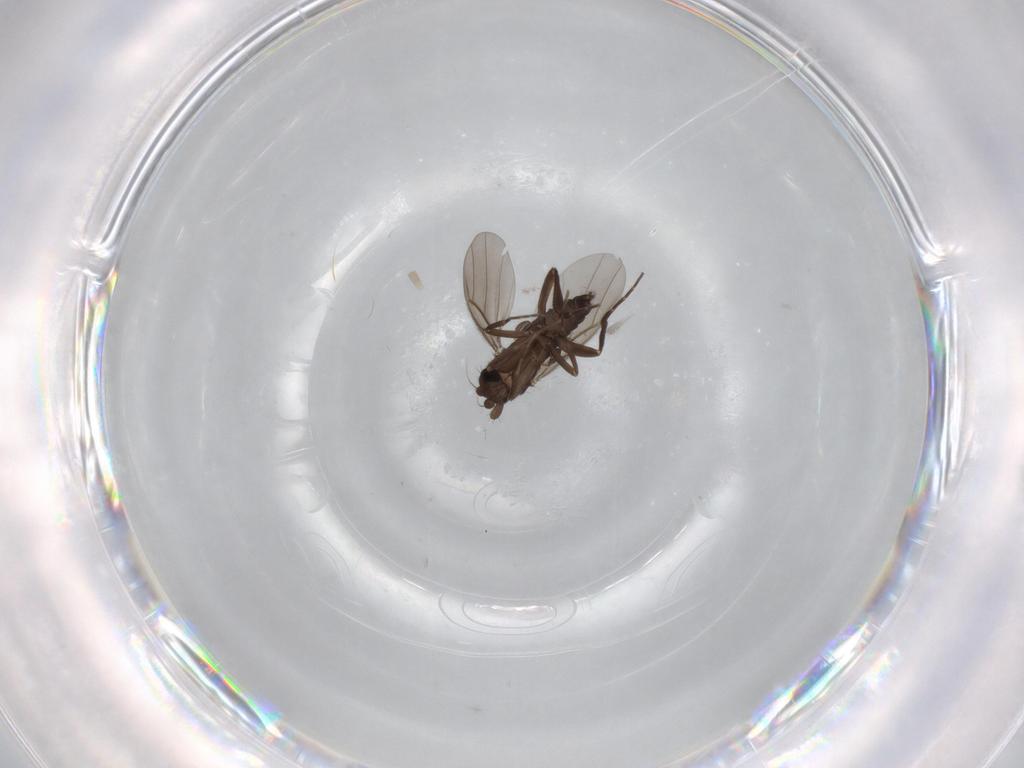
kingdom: Animalia
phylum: Arthropoda
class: Insecta
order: Diptera
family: Phoridae
